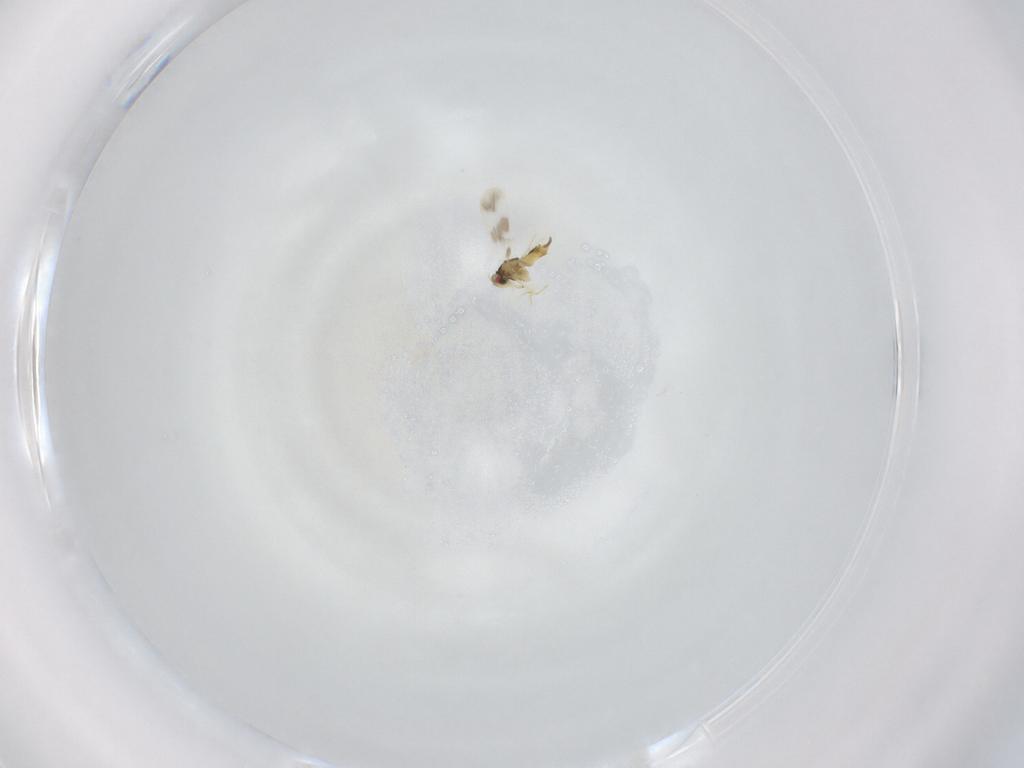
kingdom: Animalia
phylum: Arthropoda
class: Insecta
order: Hemiptera
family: Aleyrodidae
